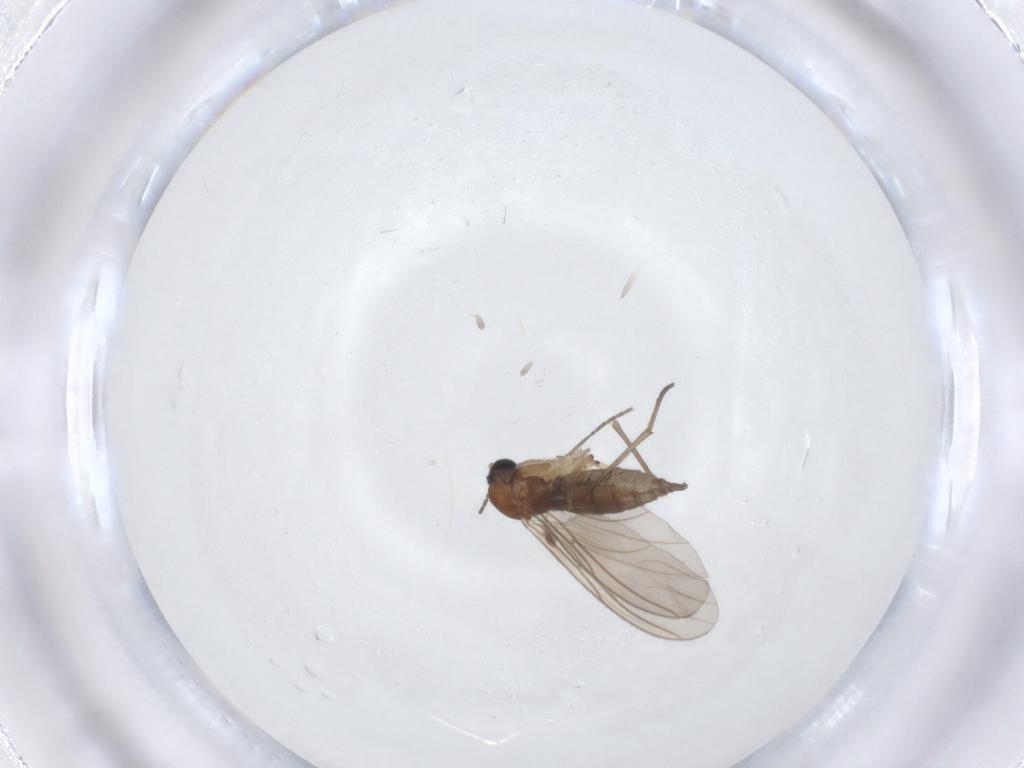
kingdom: Animalia
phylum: Arthropoda
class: Insecta
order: Diptera
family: Sciaridae
